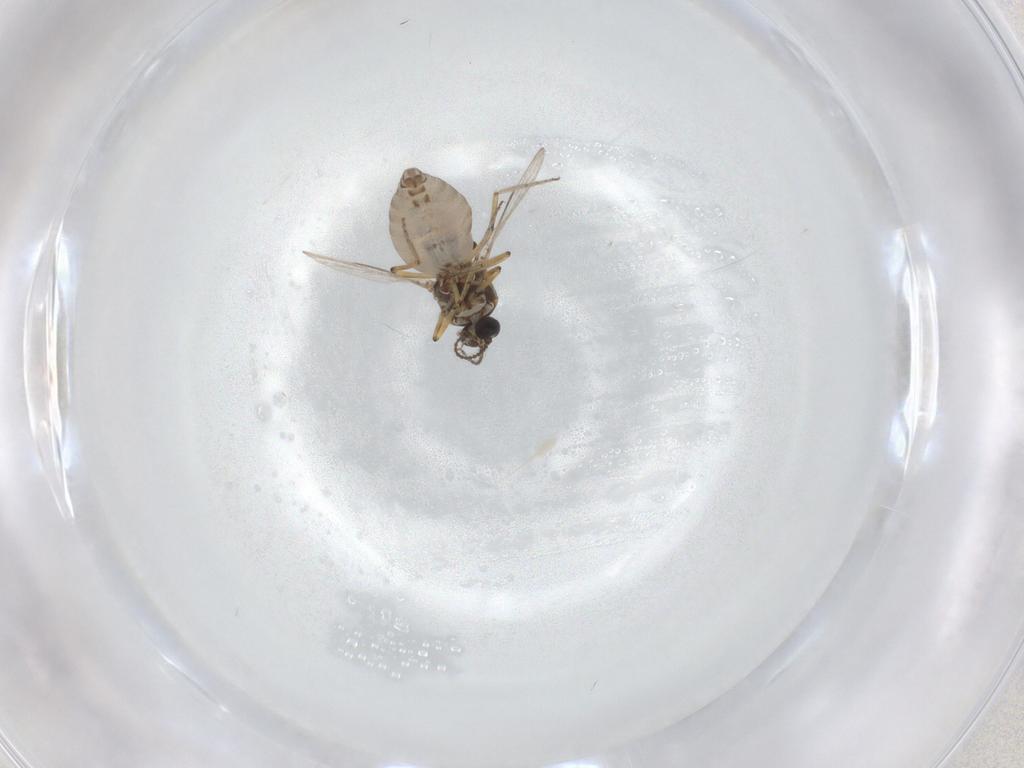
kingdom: Animalia
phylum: Arthropoda
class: Insecta
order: Diptera
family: Ceratopogonidae
